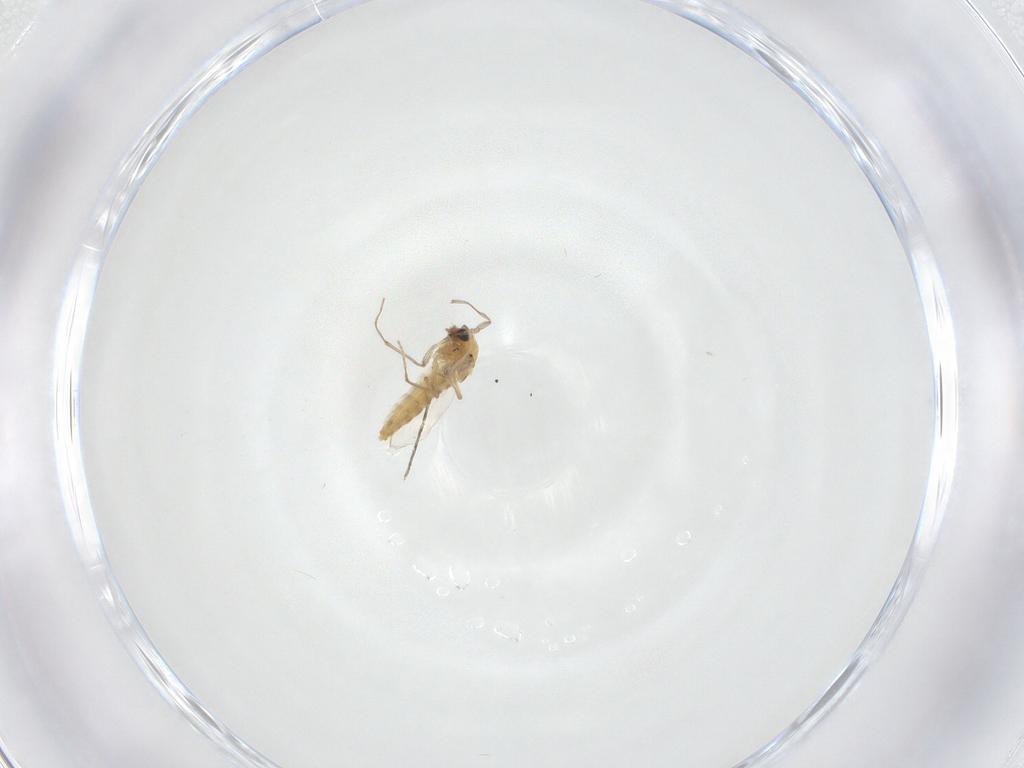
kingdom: Animalia
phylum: Arthropoda
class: Insecta
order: Diptera
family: Chironomidae
